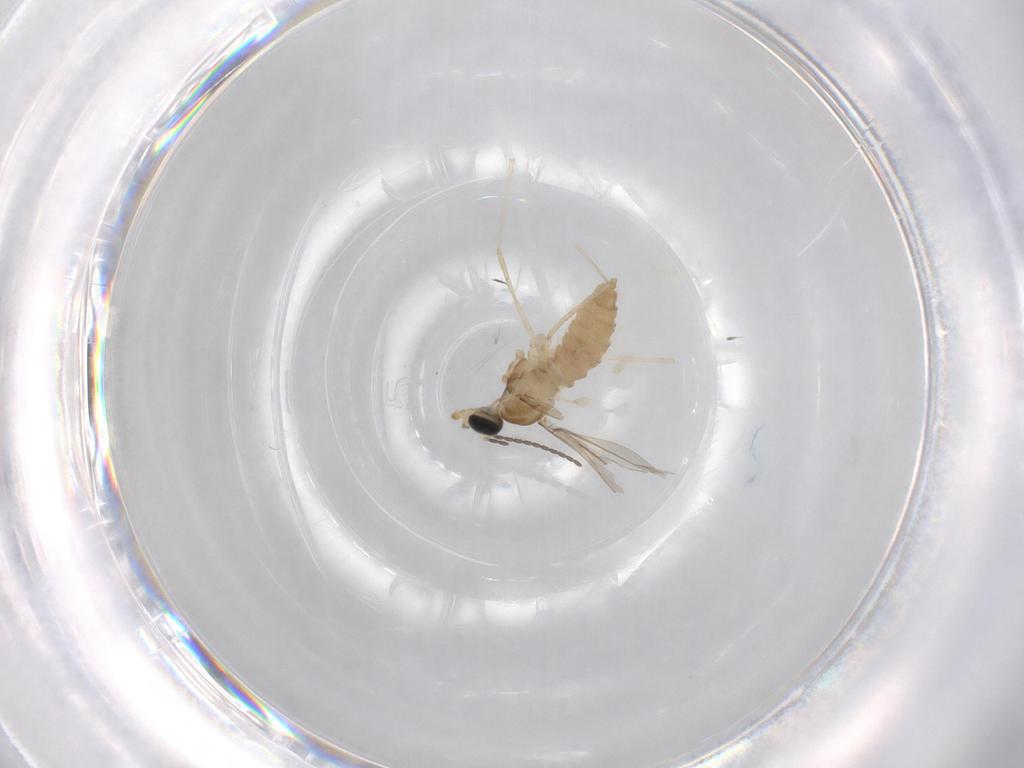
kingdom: Animalia
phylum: Arthropoda
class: Insecta
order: Diptera
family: Cecidomyiidae
